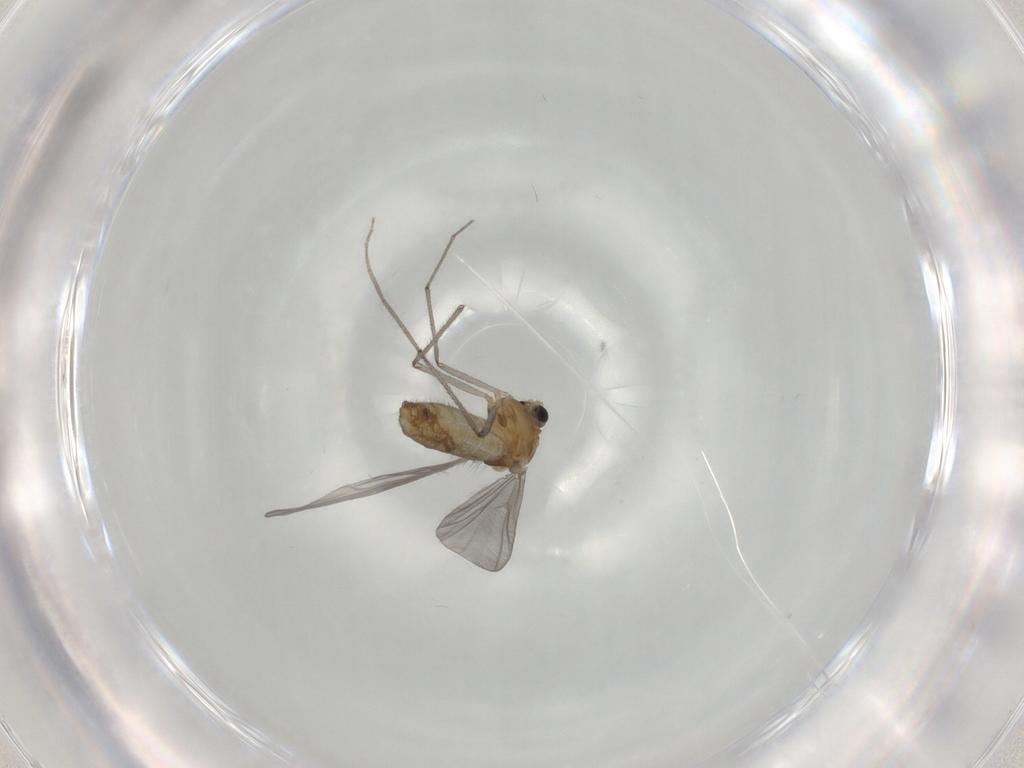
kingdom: Animalia
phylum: Arthropoda
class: Insecta
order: Diptera
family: Chironomidae
